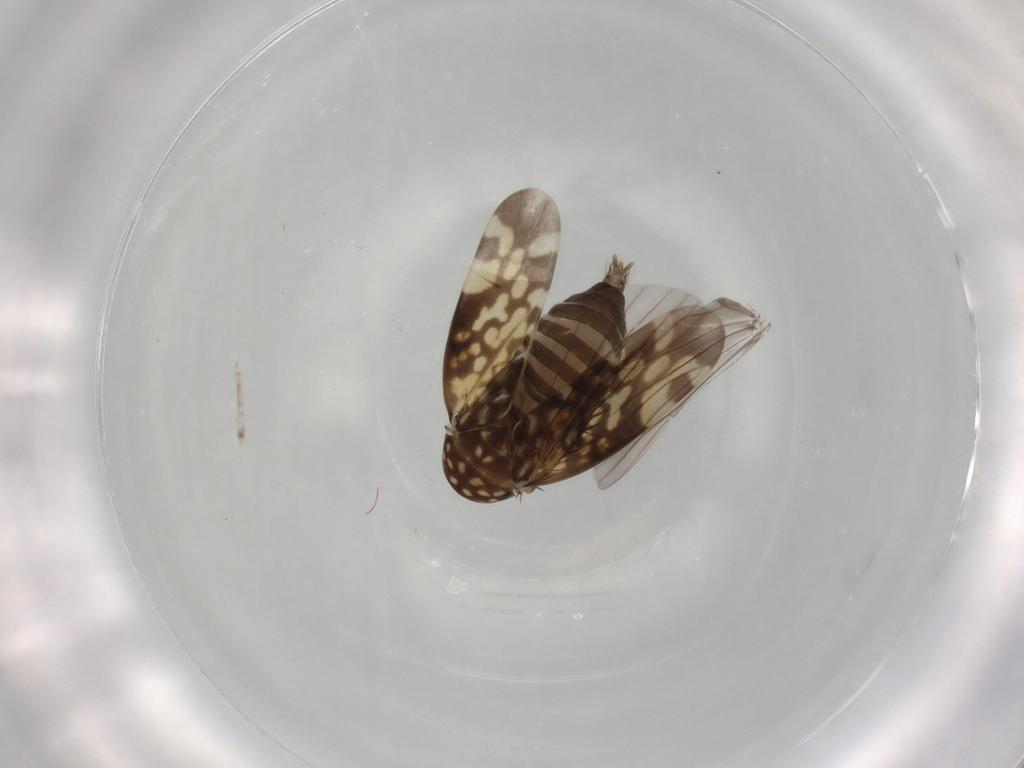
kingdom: Animalia
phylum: Arthropoda
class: Insecta
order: Hemiptera
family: Cicadellidae
